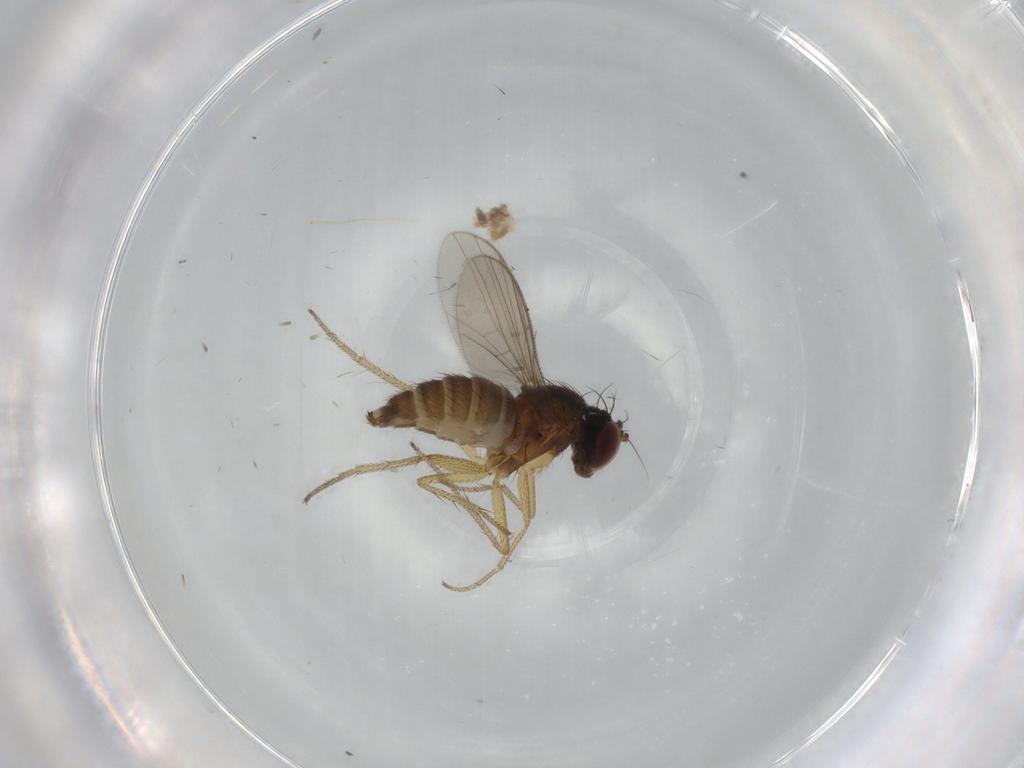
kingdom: Animalia
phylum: Arthropoda
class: Insecta
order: Diptera
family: Dolichopodidae
